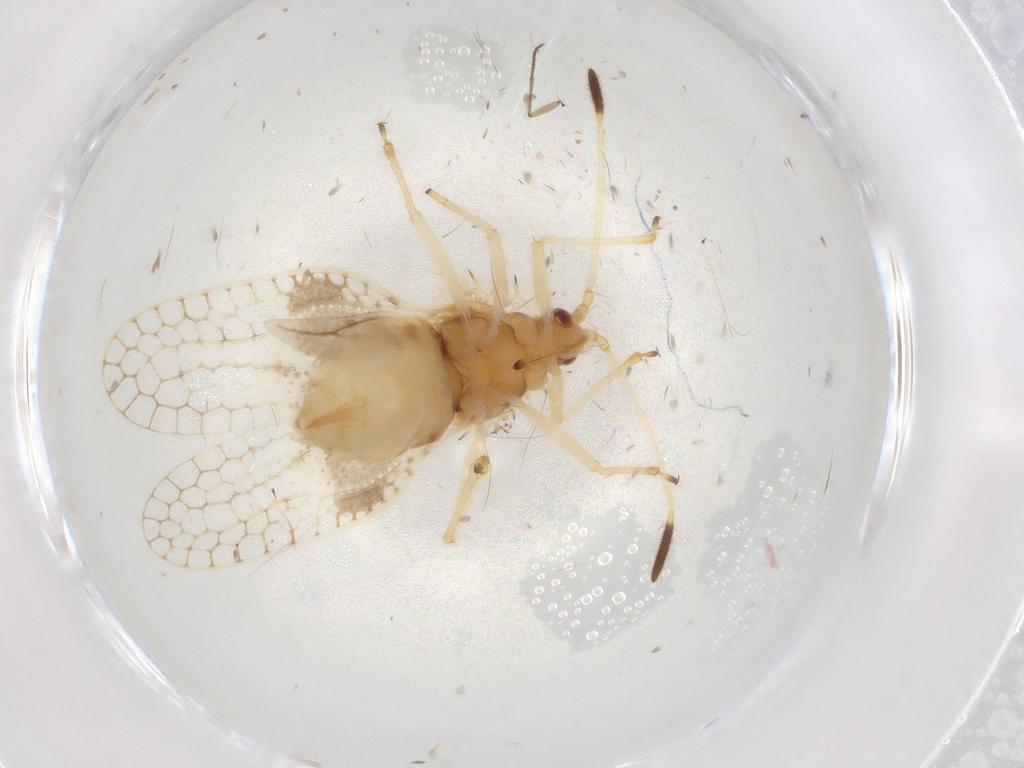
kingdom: Animalia
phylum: Arthropoda
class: Insecta
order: Hemiptera
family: Tingidae
